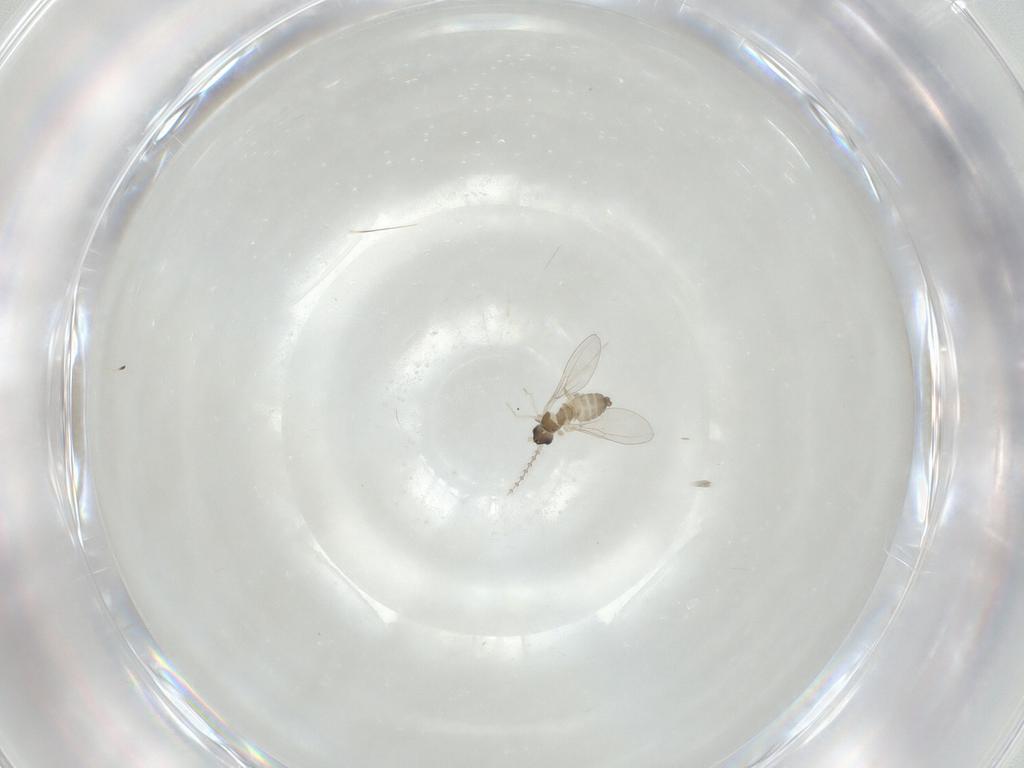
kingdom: Animalia
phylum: Arthropoda
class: Insecta
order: Diptera
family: Cecidomyiidae
